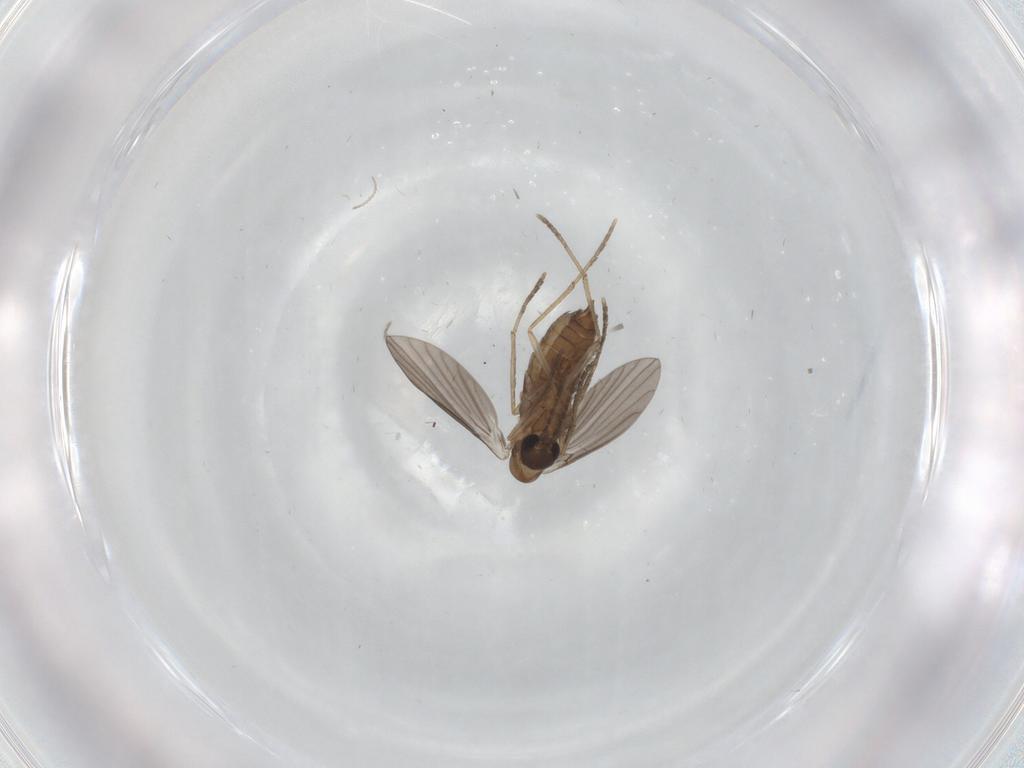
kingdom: Animalia
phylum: Arthropoda
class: Insecta
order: Diptera
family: Cecidomyiidae
